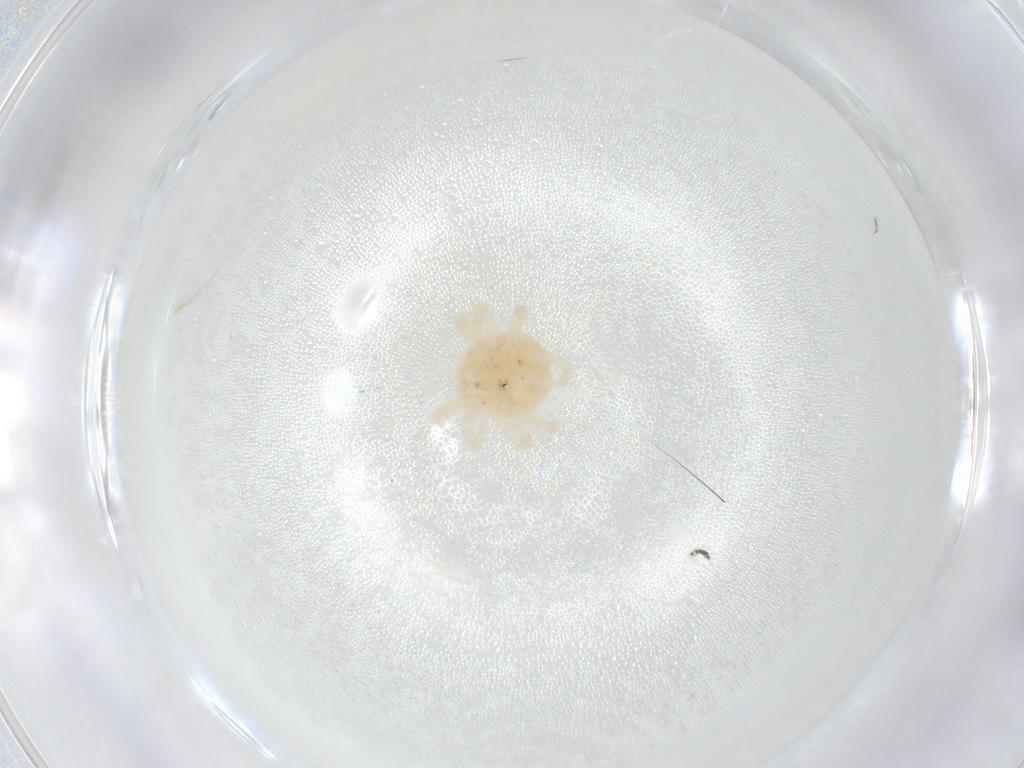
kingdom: Animalia
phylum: Arthropoda
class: Arachnida
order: Trombidiformes
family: Anystidae
